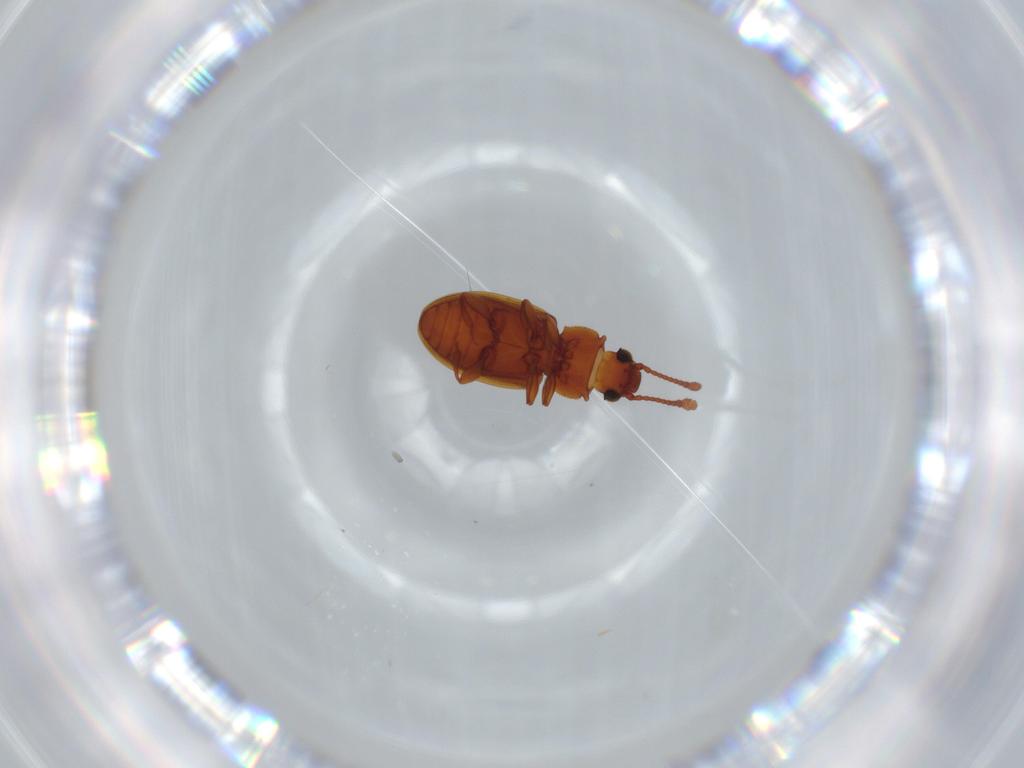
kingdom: Animalia
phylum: Arthropoda
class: Insecta
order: Coleoptera
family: Silvanidae
